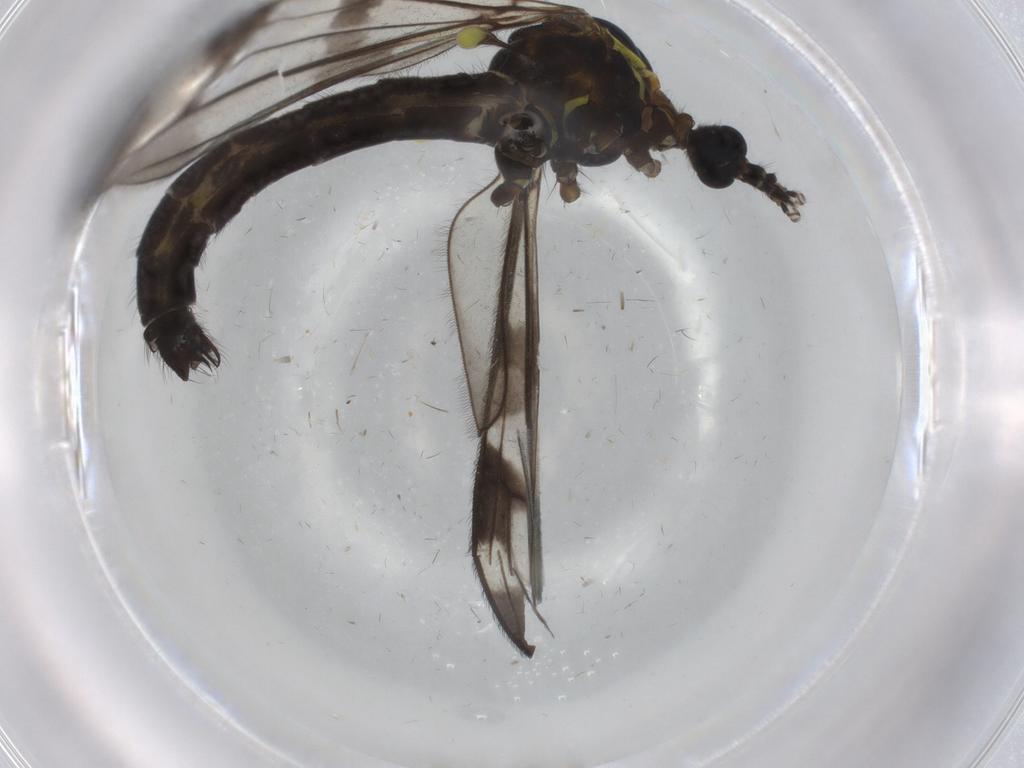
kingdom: Animalia
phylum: Arthropoda
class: Insecta
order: Diptera
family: Limoniidae
